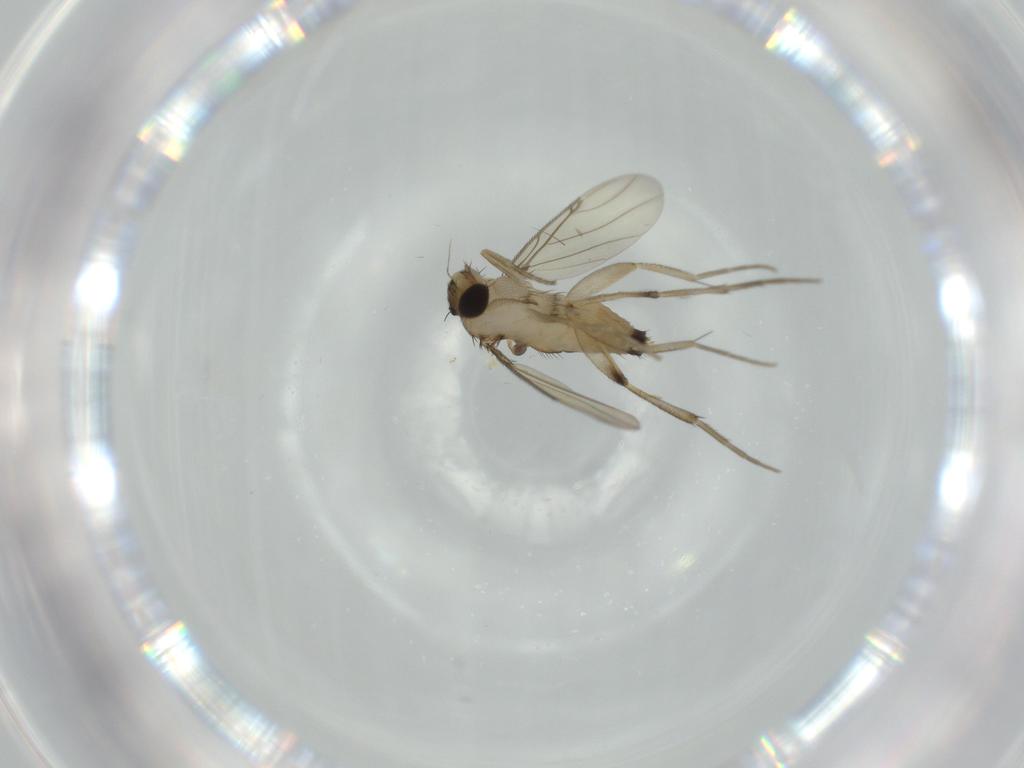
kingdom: Animalia
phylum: Arthropoda
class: Insecta
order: Diptera
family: Phoridae
